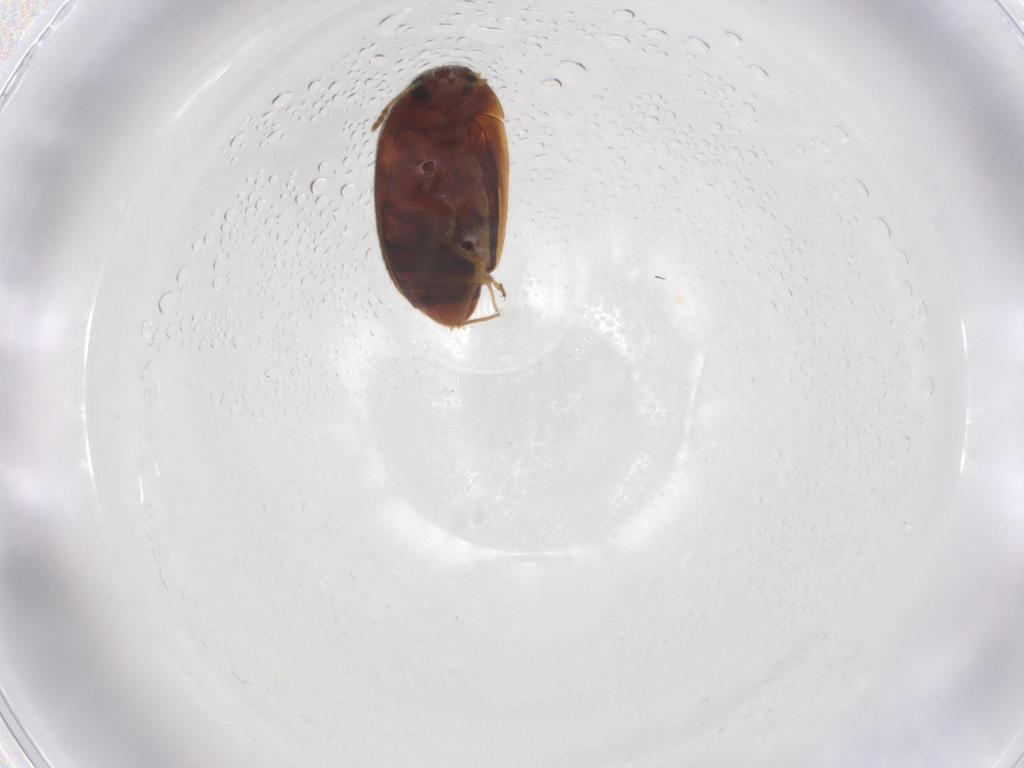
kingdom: Animalia
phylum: Arthropoda
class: Insecta
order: Coleoptera
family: Mycetophagidae
